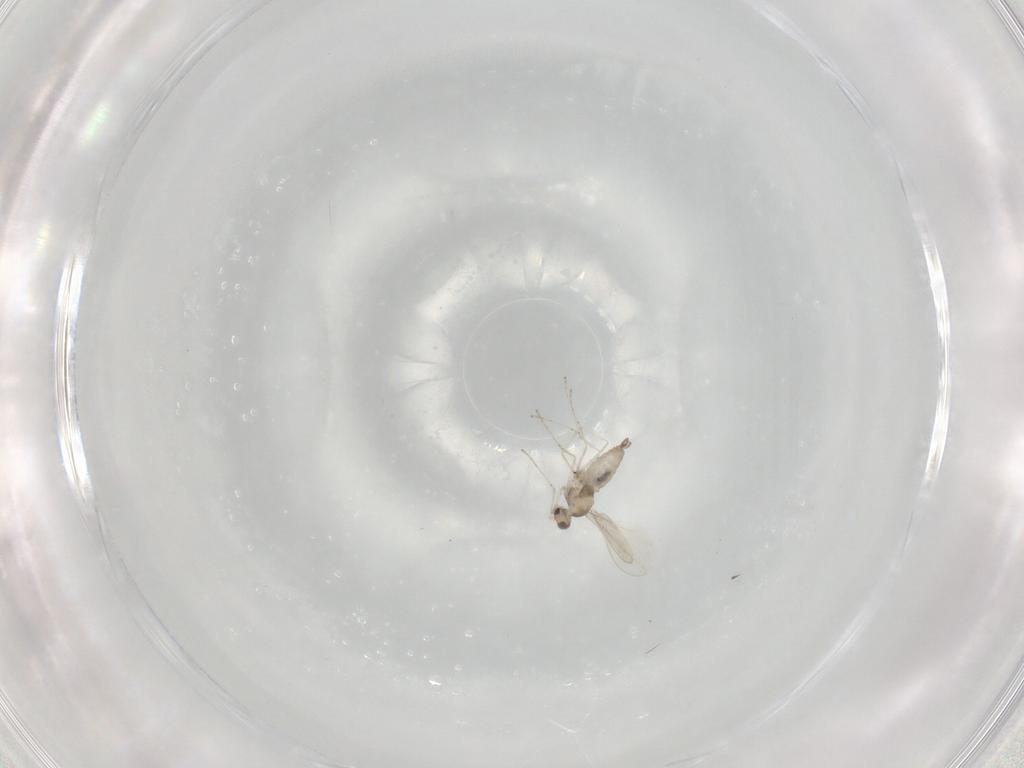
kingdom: Animalia
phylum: Arthropoda
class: Insecta
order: Diptera
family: Cecidomyiidae
